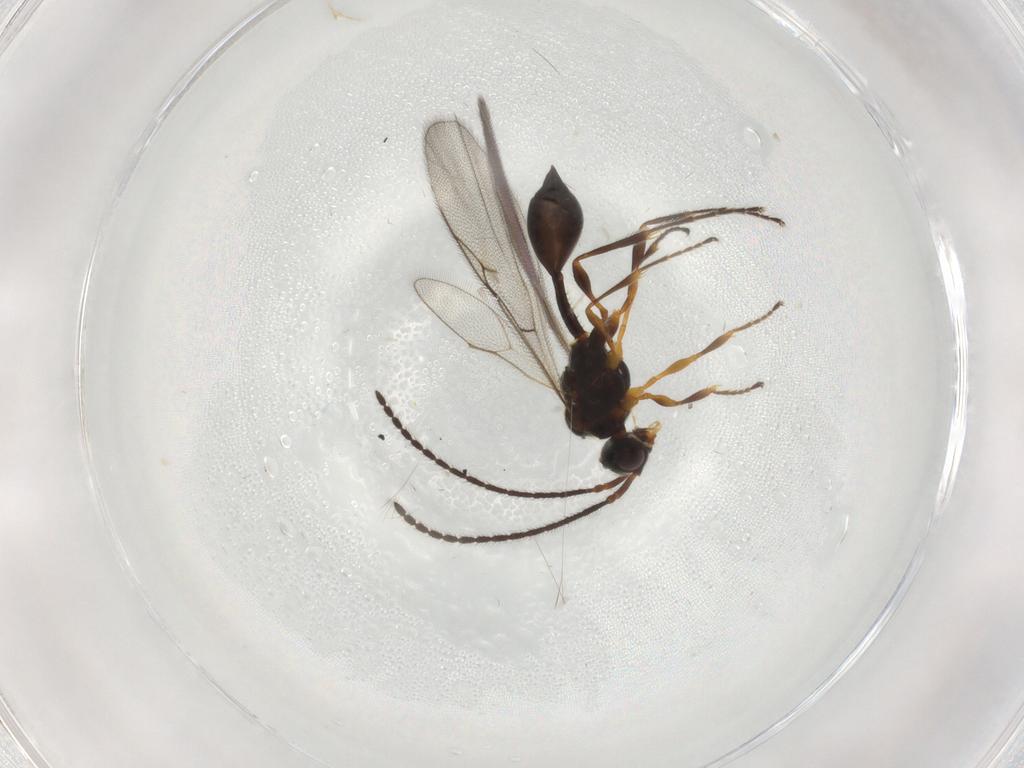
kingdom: Animalia
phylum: Arthropoda
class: Insecta
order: Hymenoptera
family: Diapriidae
